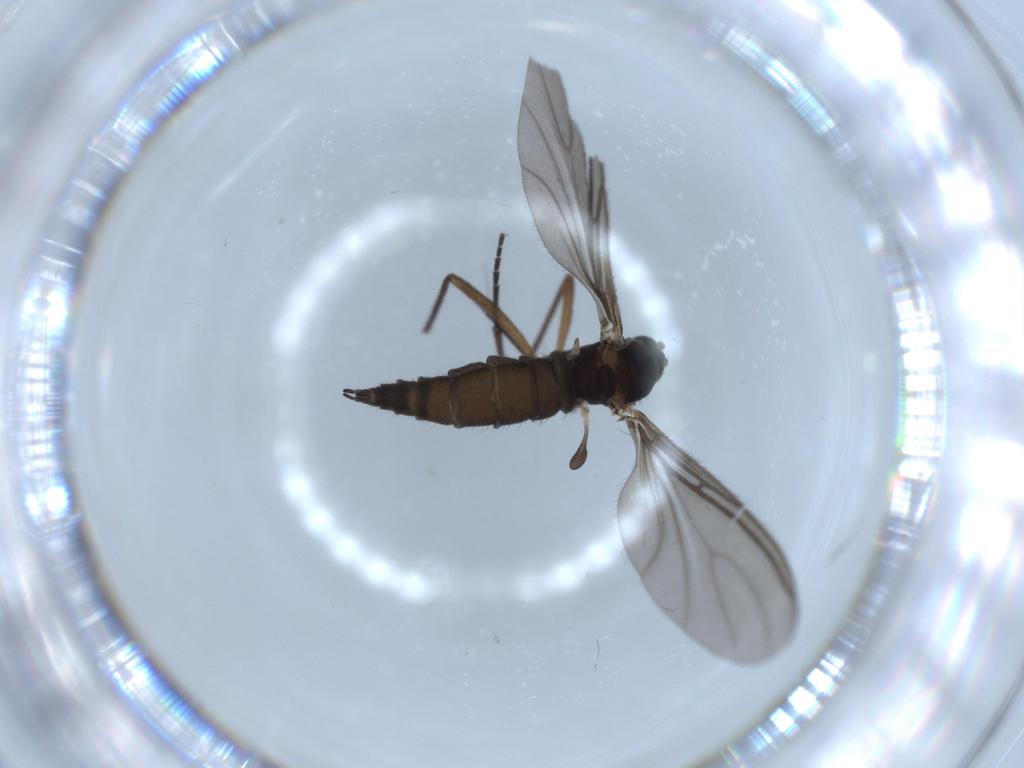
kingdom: Animalia
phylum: Arthropoda
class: Insecta
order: Diptera
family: Sciaridae
